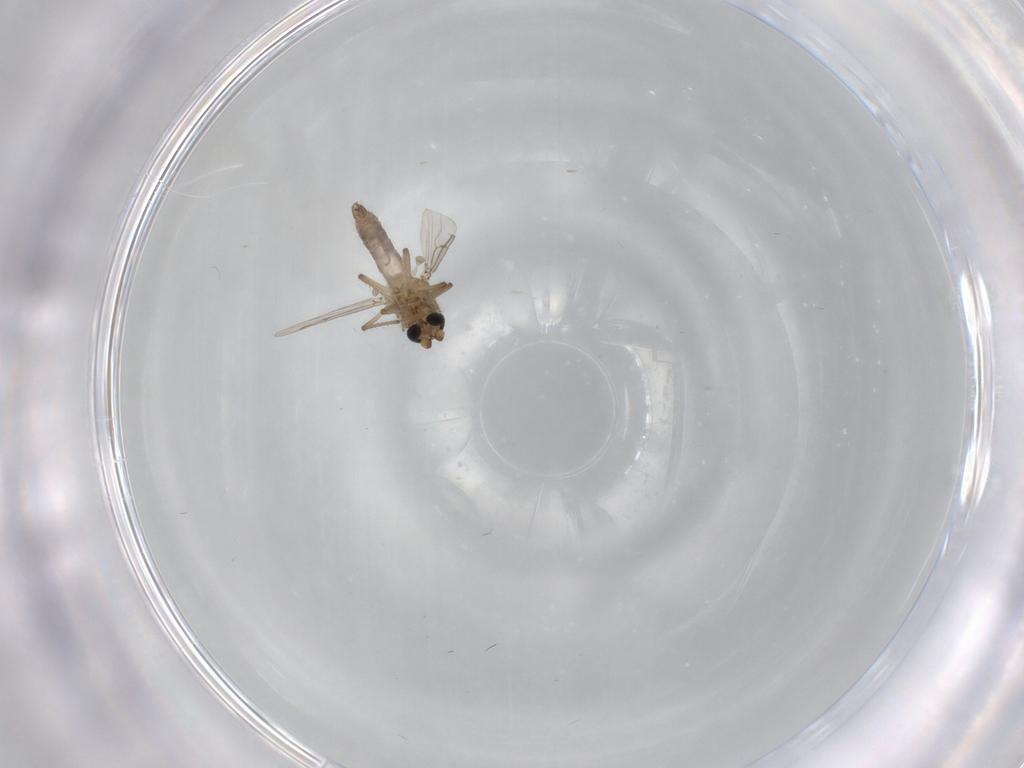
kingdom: Animalia
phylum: Arthropoda
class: Insecta
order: Diptera
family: Ceratopogonidae
